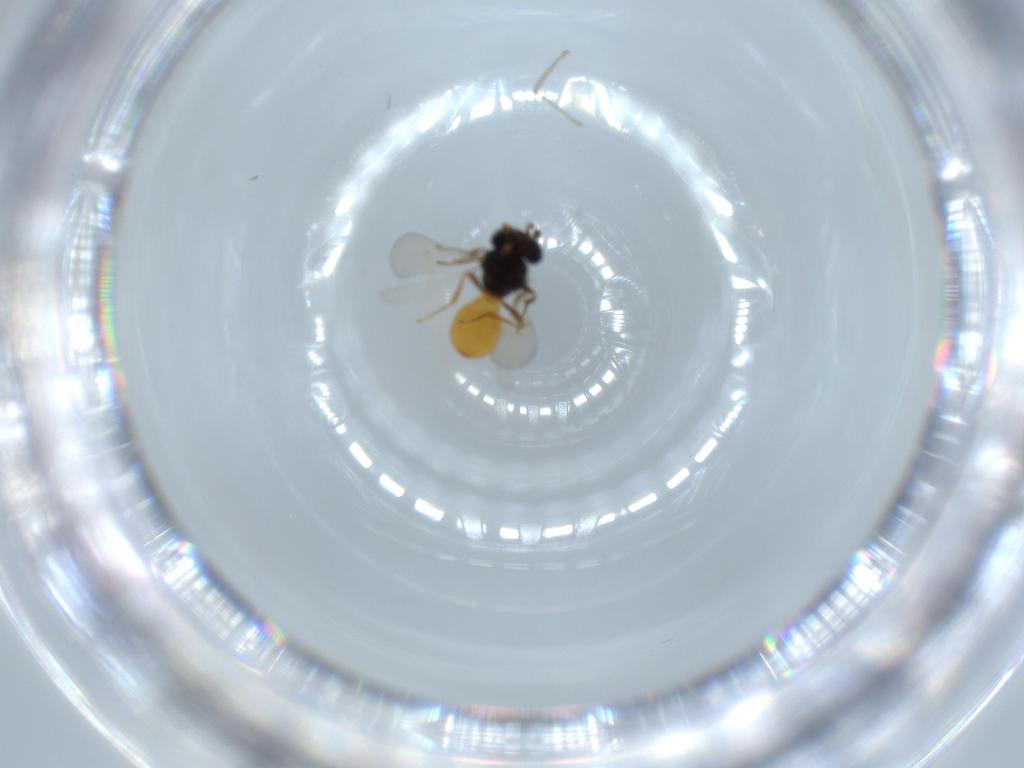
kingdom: Animalia
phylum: Arthropoda
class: Insecta
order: Hymenoptera
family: Scelionidae
